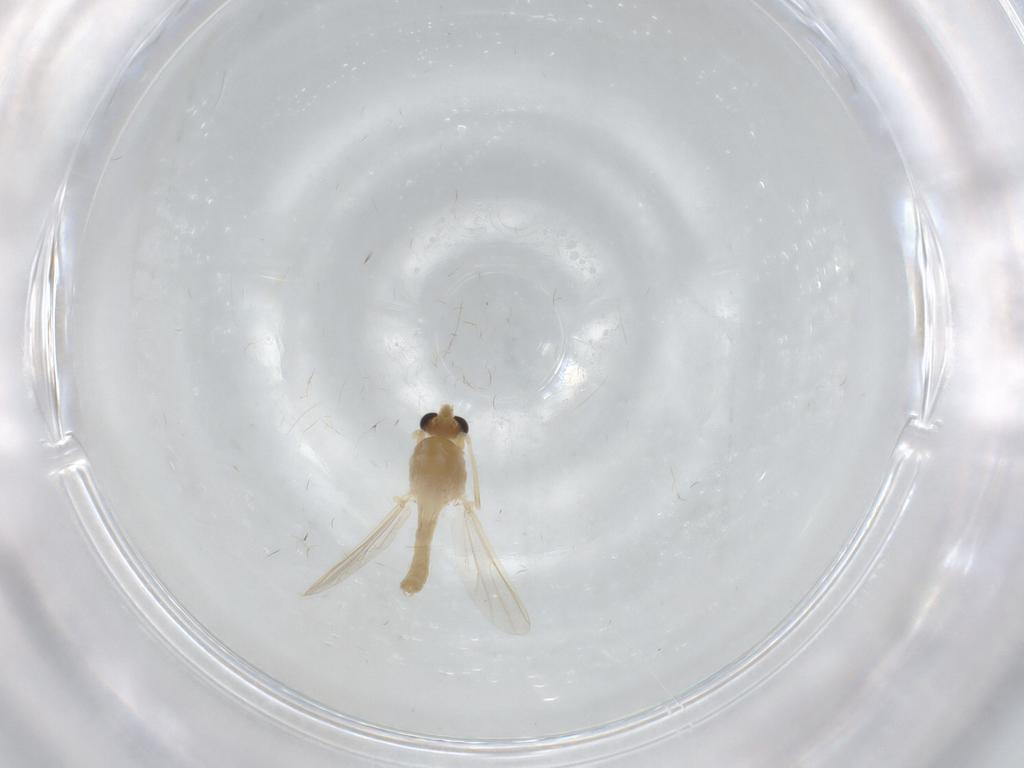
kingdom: Animalia
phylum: Arthropoda
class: Insecta
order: Diptera
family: Chironomidae
